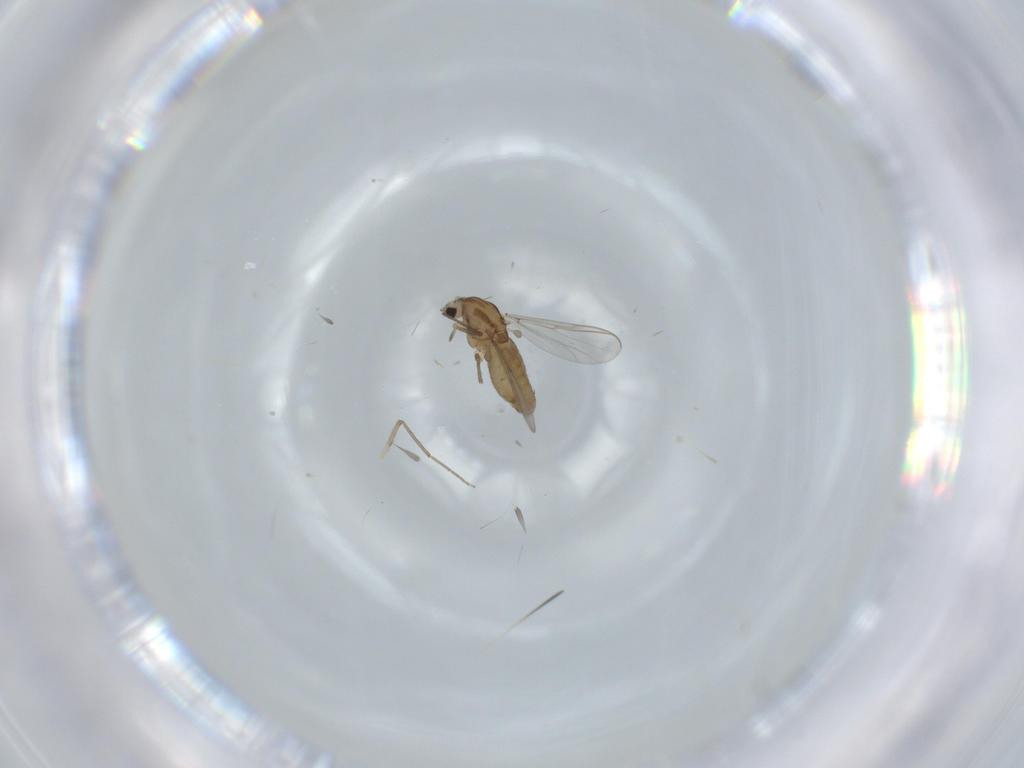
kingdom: Animalia
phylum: Arthropoda
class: Insecta
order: Diptera
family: Chironomidae
